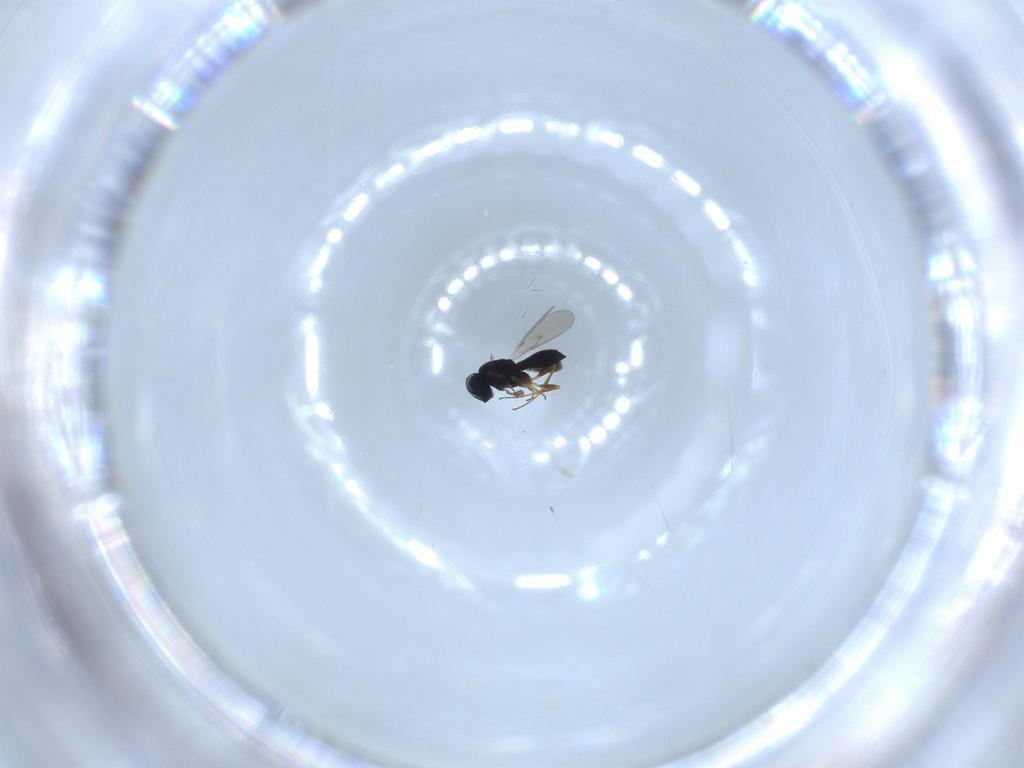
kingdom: Animalia
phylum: Arthropoda
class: Insecta
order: Hymenoptera
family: Scelionidae
